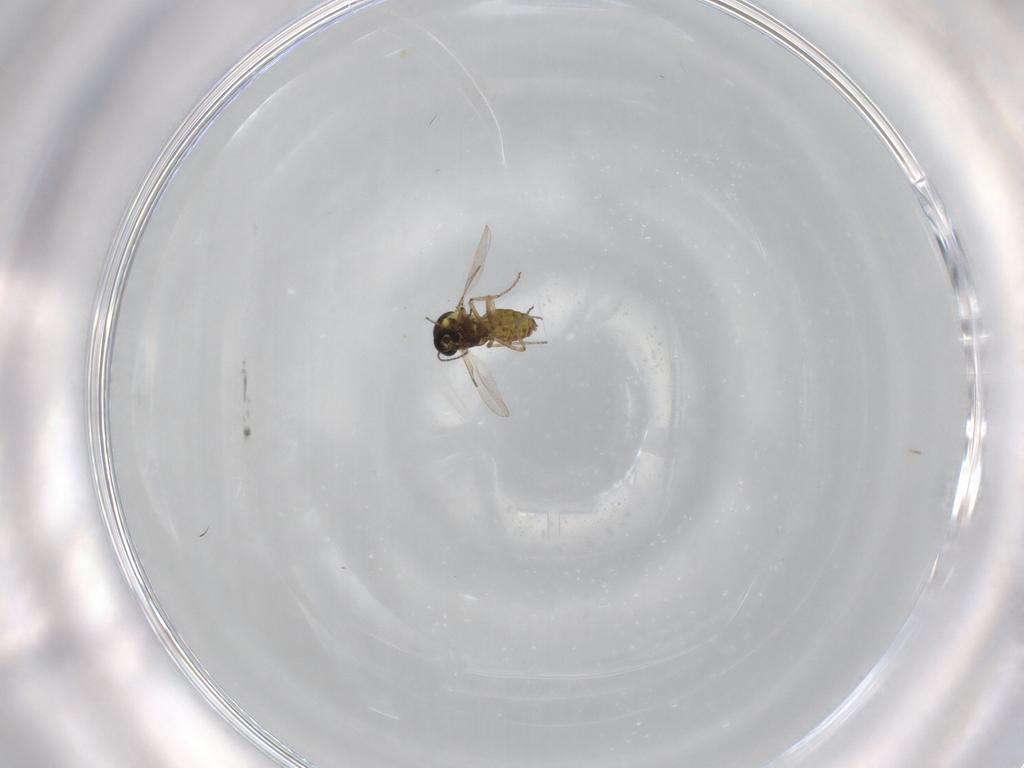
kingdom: Animalia
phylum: Arthropoda
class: Insecta
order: Diptera
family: Ceratopogonidae
